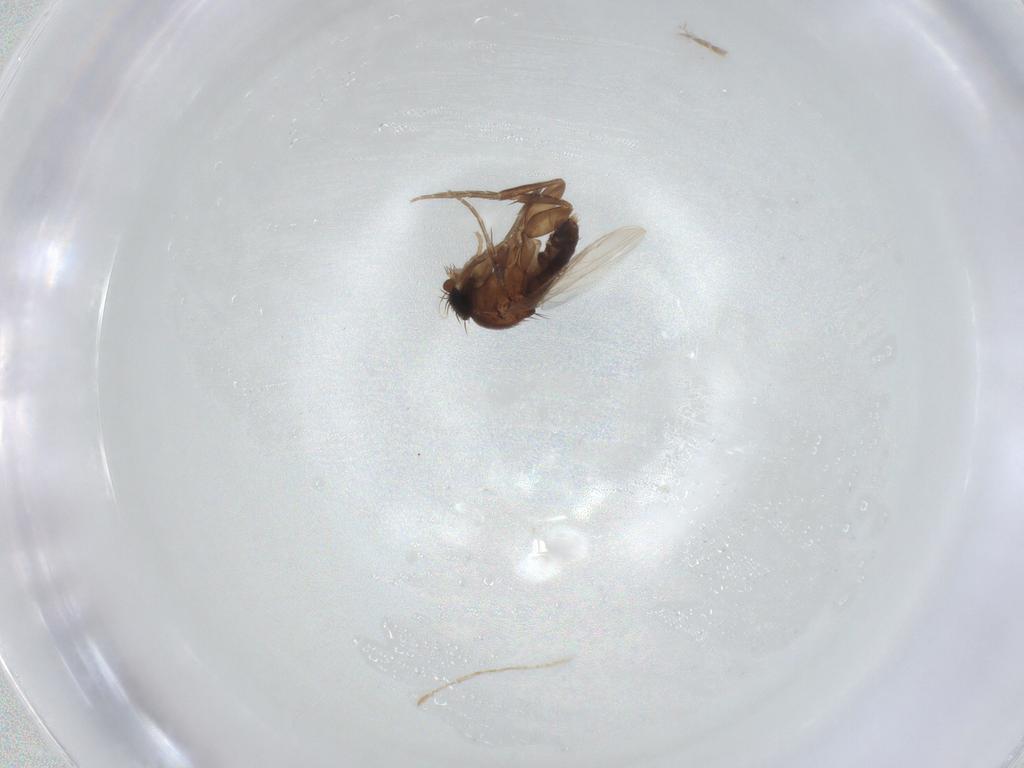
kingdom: Animalia
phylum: Arthropoda
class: Insecta
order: Diptera
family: Phoridae
